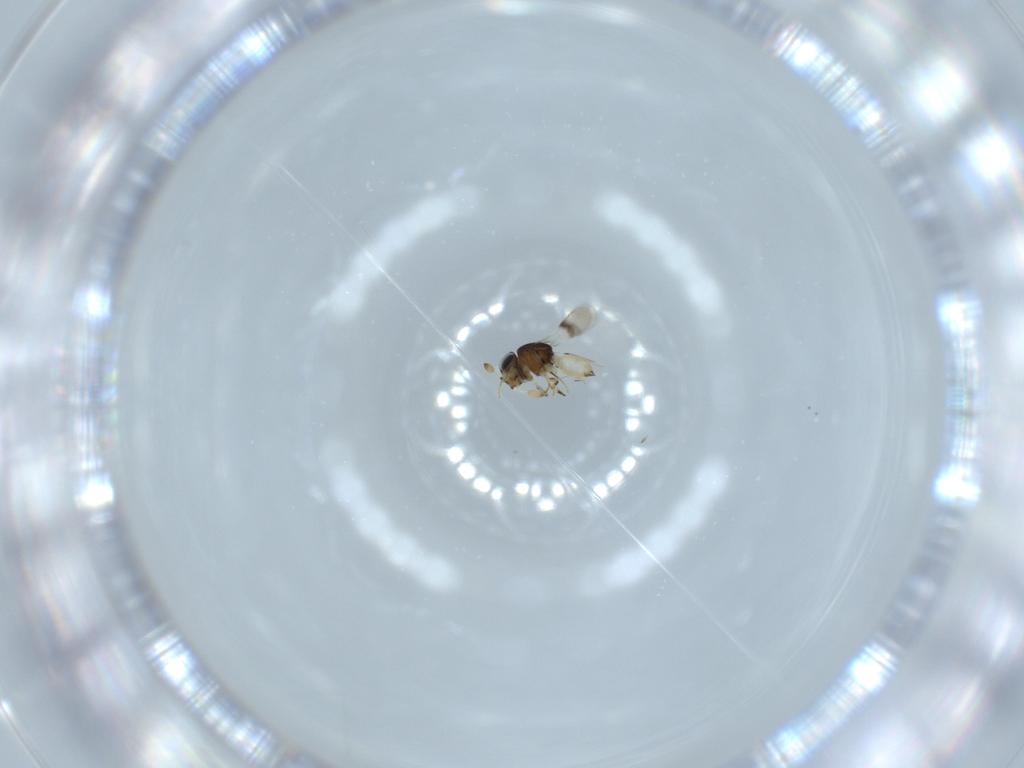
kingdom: Animalia
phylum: Arthropoda
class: Insecta
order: Hymenoptera
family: Scelionidae
